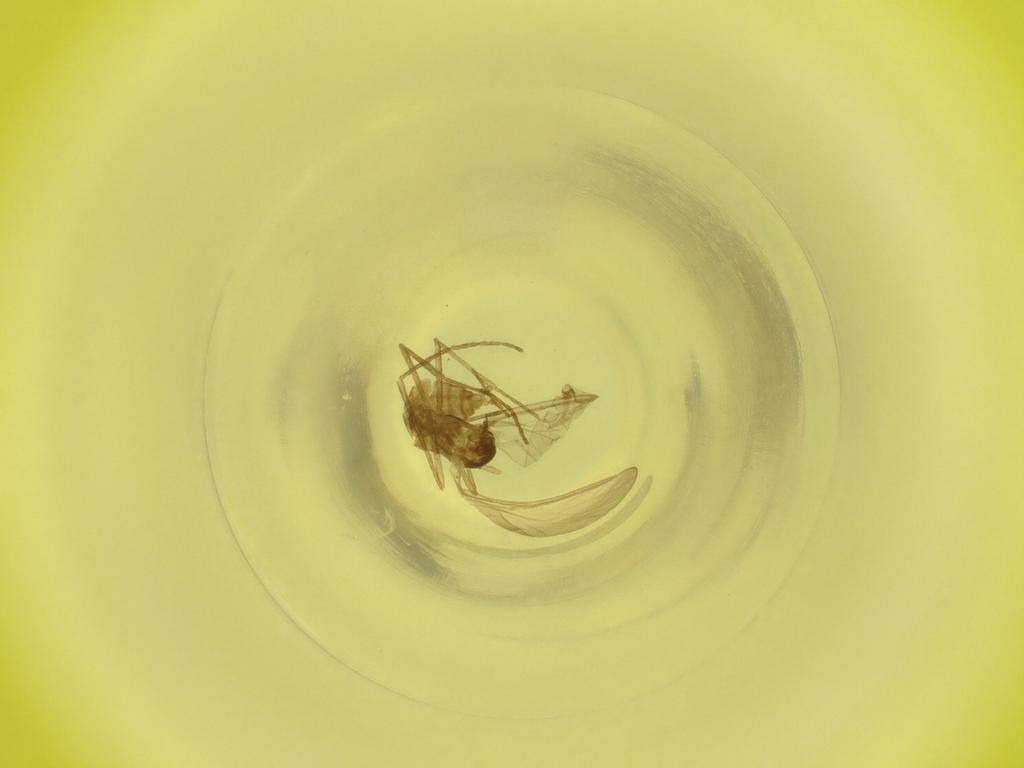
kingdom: Animalia
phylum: Arthropoda
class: Insecta
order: Diptera
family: Cecidomyiidae
